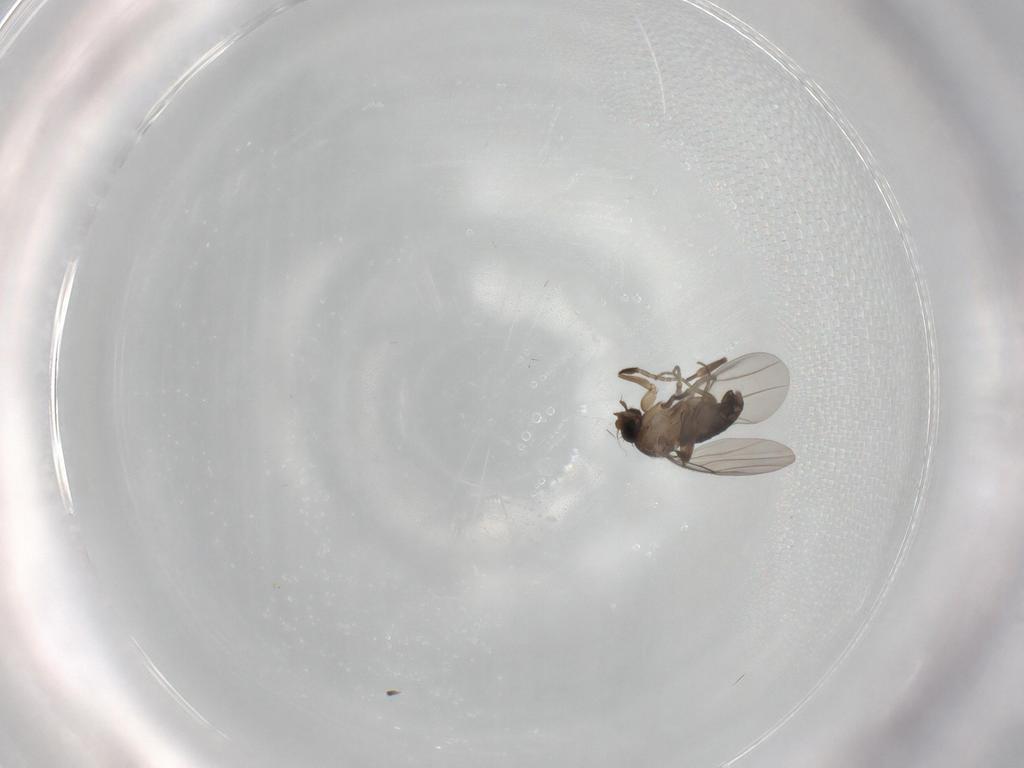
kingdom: Animalia
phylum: Arthropoda
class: Insecta
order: Diptera
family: Phoridae
